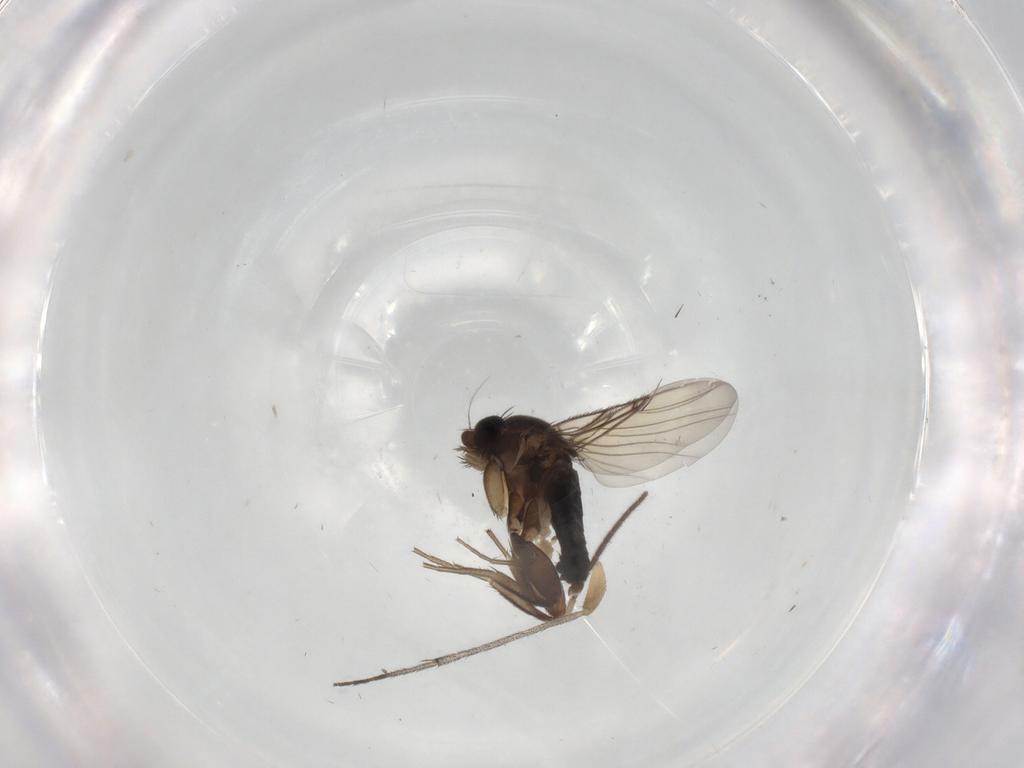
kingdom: Animalia
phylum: Arthropoda
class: Insecta
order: Diptera
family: Phoridae
